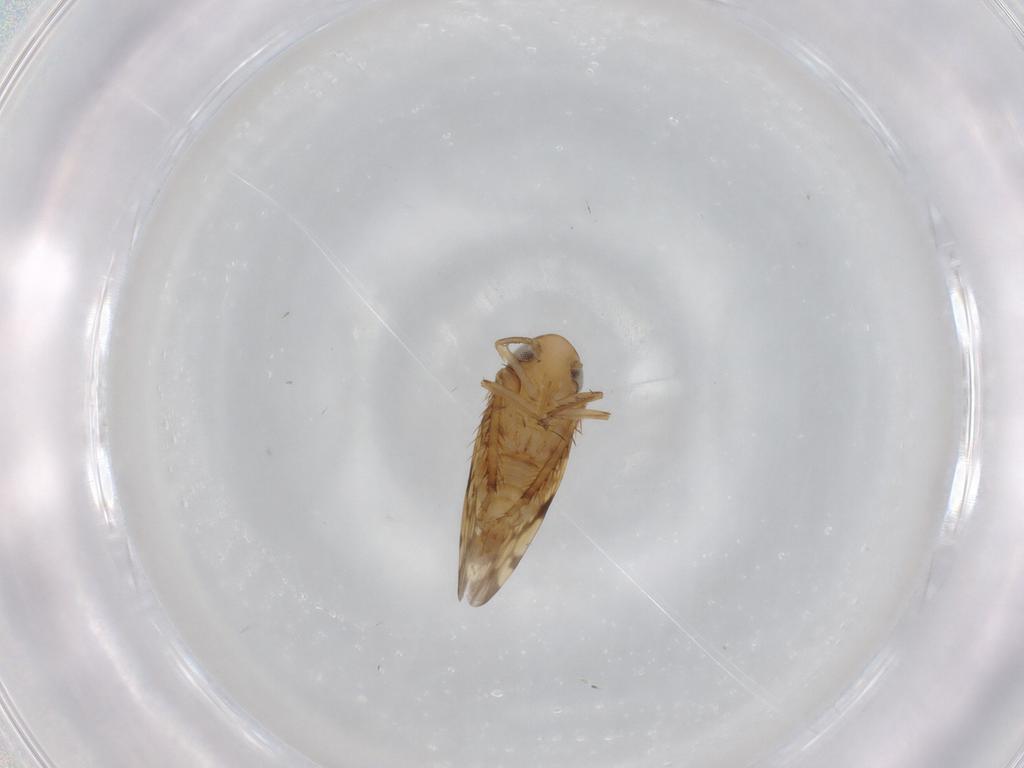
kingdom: Animalia
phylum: Arthropoda
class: Insecta
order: Hemiptera
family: Cicadellidae
